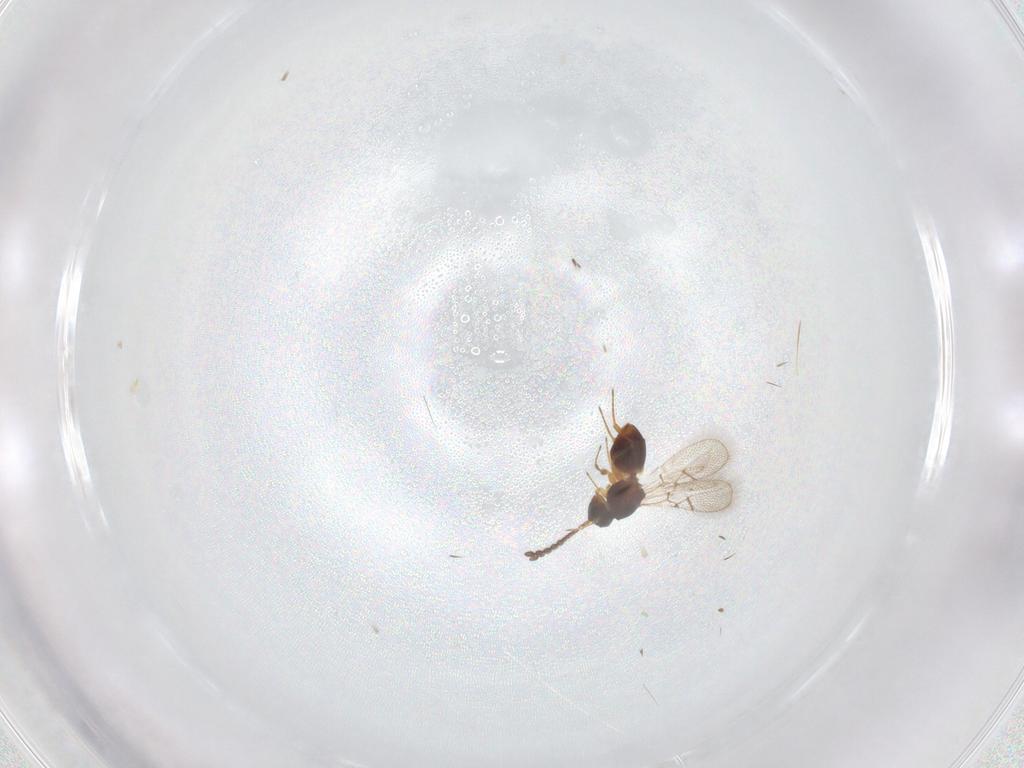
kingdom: Animalia
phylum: Arthropoda
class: Insecta
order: Hymenoptera
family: Figitidae
